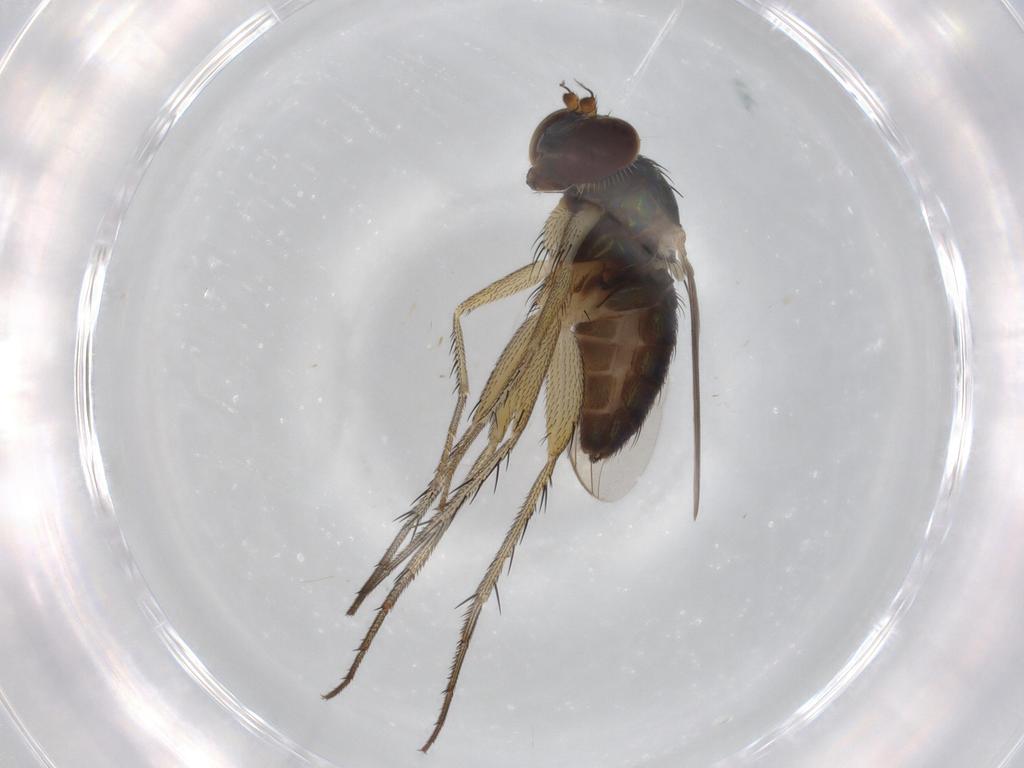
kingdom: Animalia
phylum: Arthropoda
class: Insecta
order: Diptera
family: Dolichopodidae
